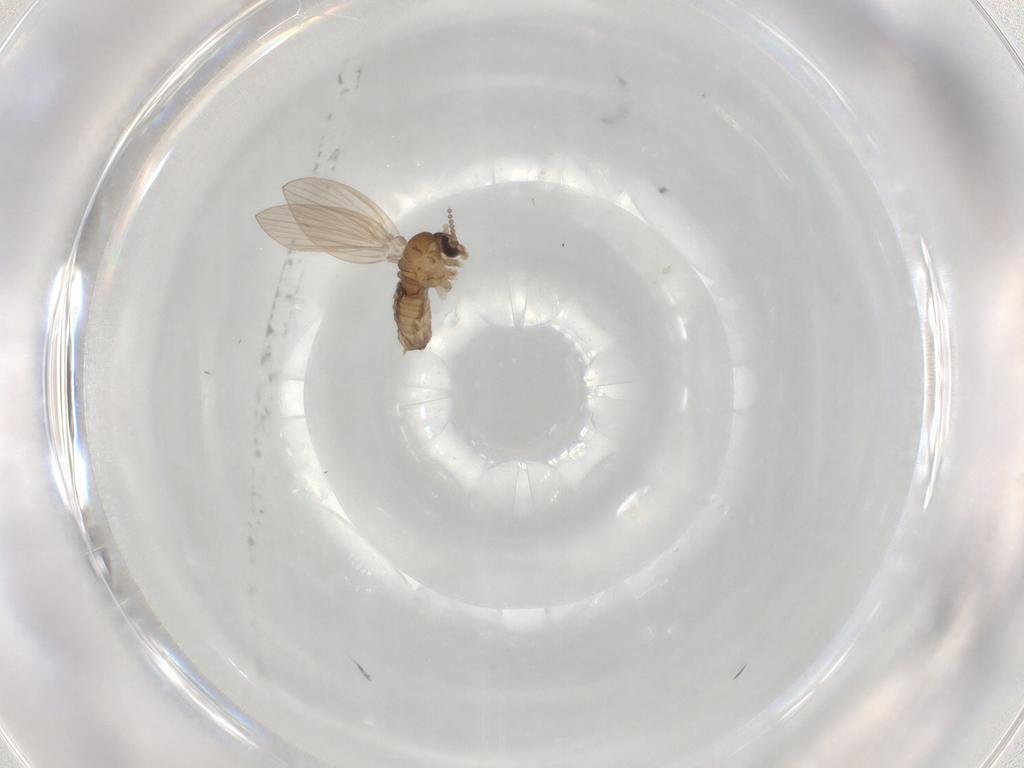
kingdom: Animalia
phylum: Arthropoda
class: Insecta
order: Diptera
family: Psychodidae
